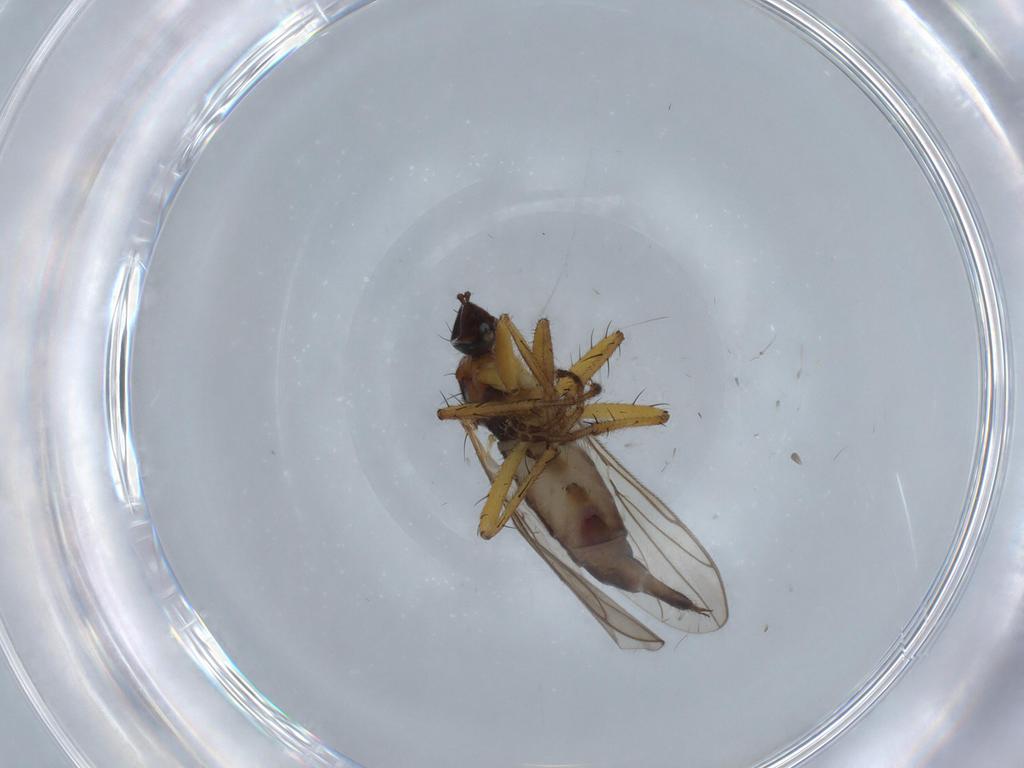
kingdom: Animalia
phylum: Arthropoda
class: Insecta
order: Diptera
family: Hybotidae
